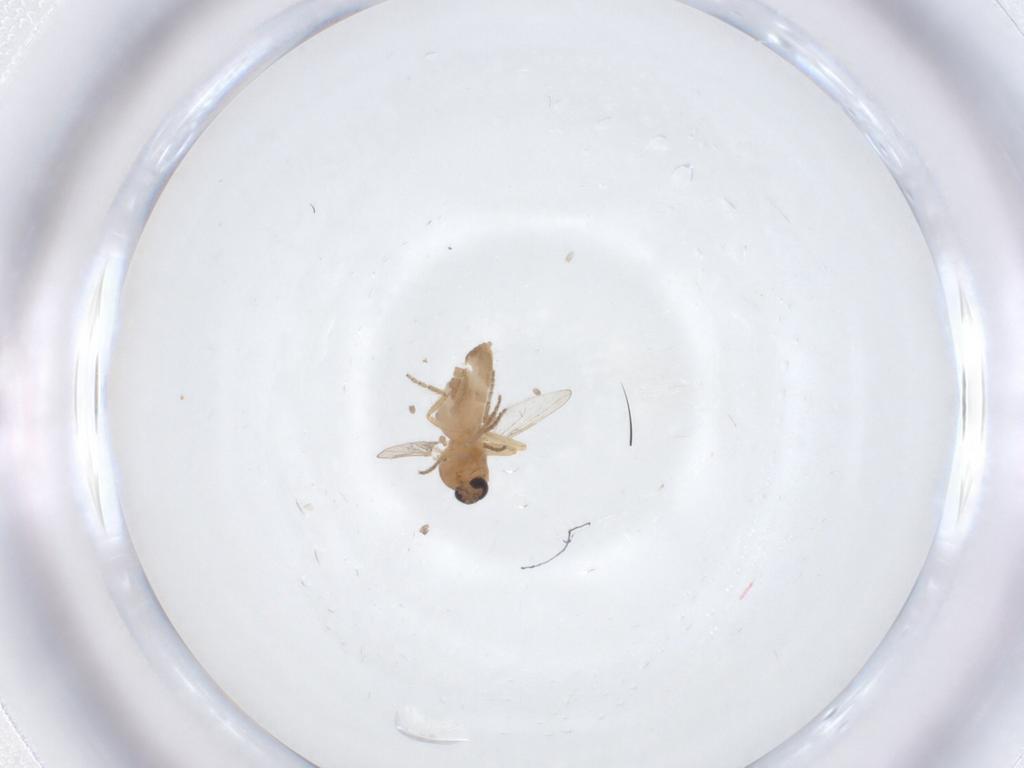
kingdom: Animalia
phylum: Arthropoda
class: Insecta
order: Diptera
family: Ceratopogonidae
